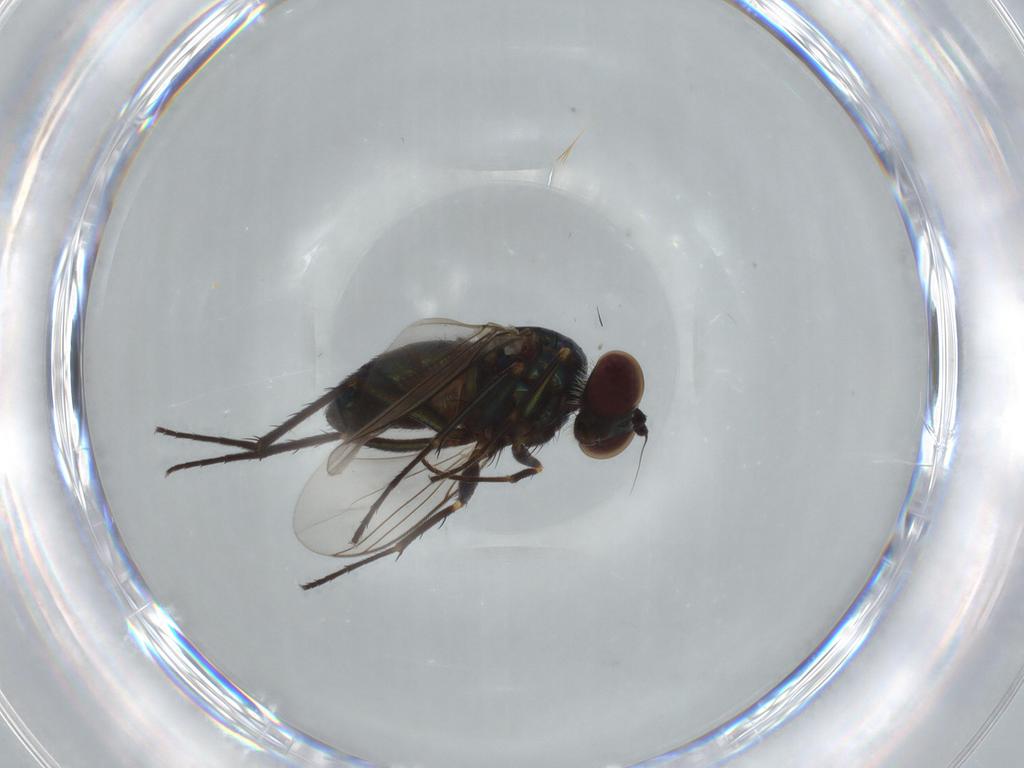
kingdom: Animalia
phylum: Arthropoda
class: Insecta
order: Diptera
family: Dolichopodidae
